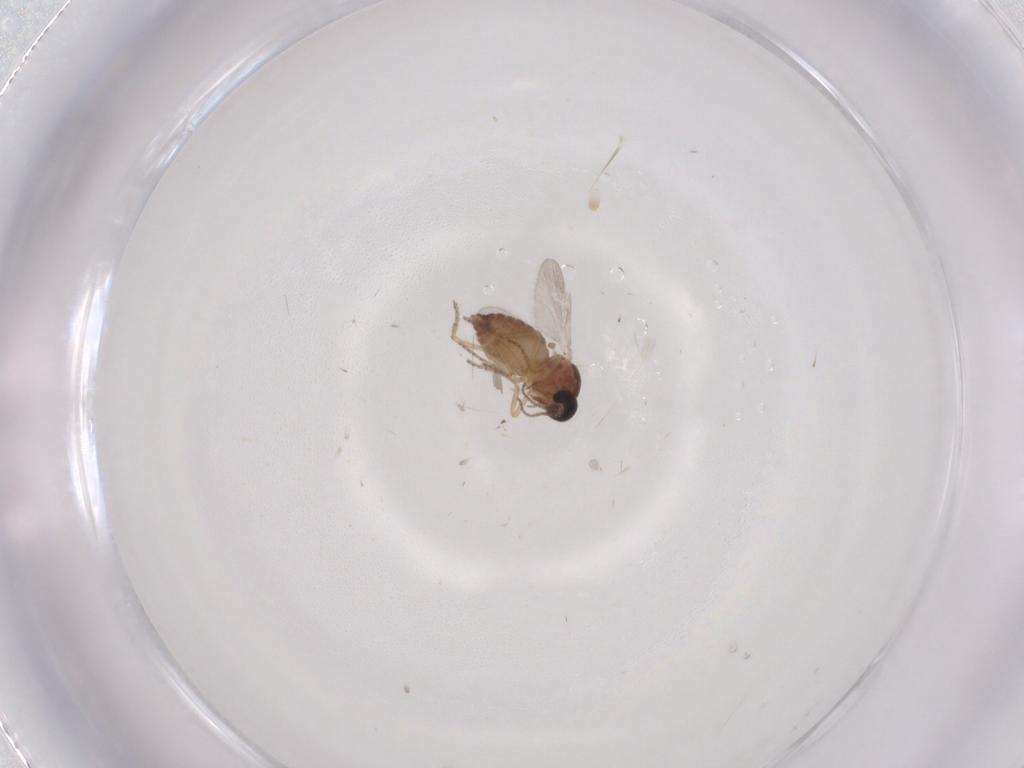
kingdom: Animalia
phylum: Arthropoda
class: Insecta
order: Diptera
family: Ceratopogonidae
